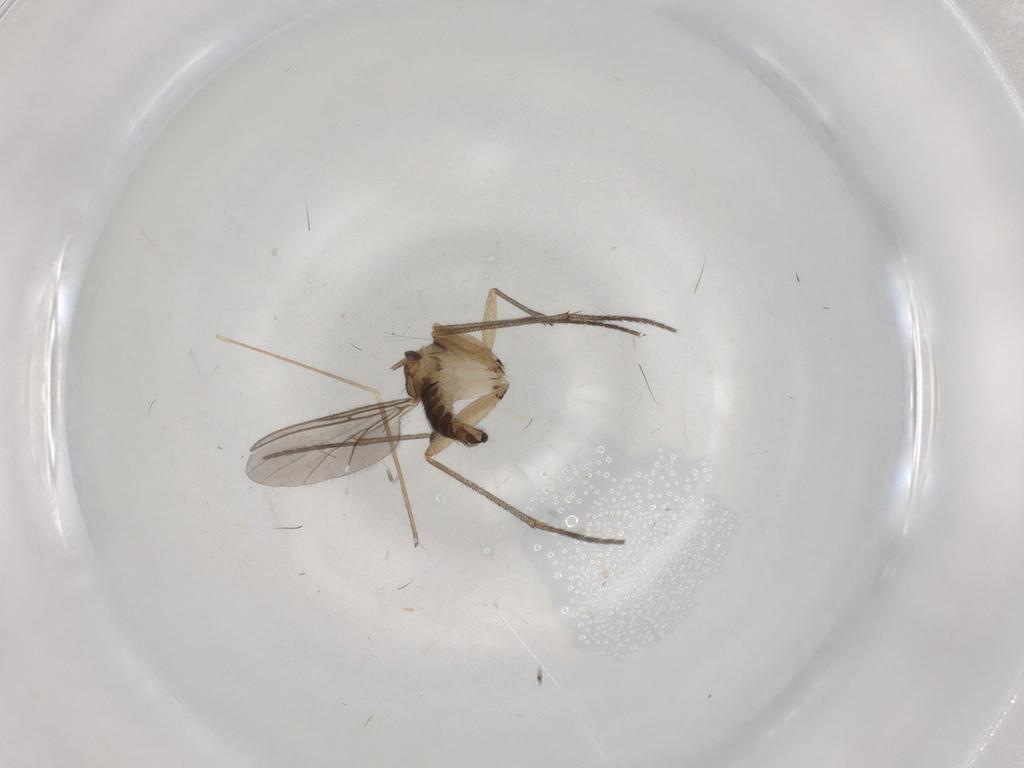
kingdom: Animalia
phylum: Arthropoda
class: Insecta
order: Diptera
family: Sciaridae
